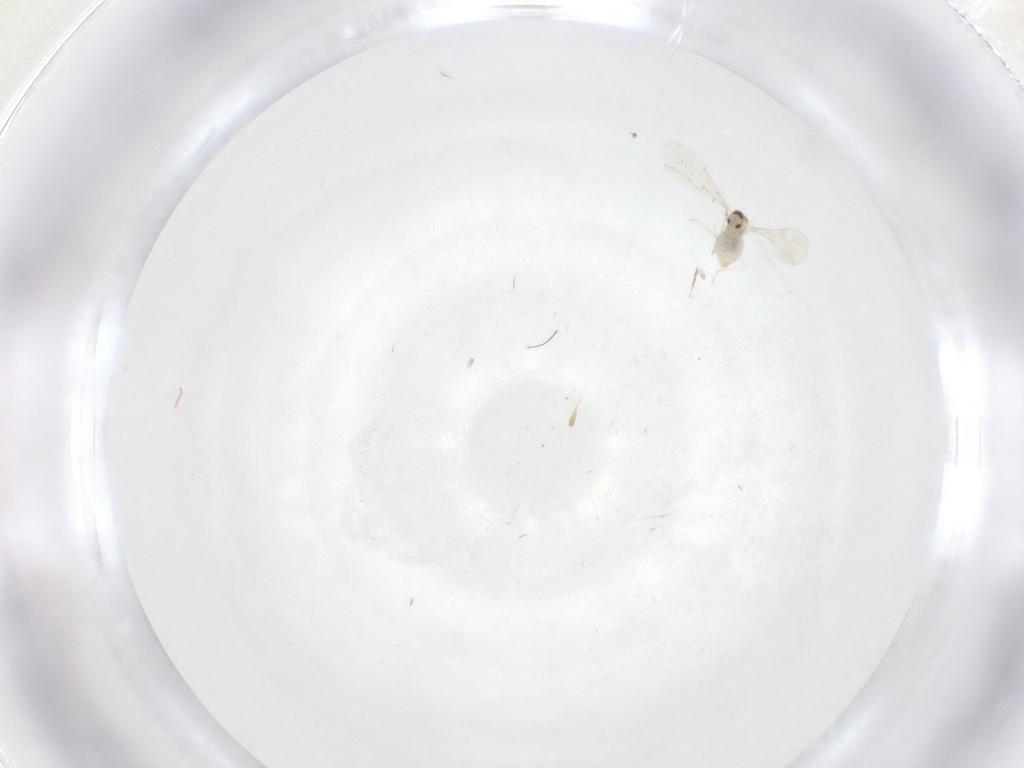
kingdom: Animalia
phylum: Arthropoda
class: Insecta
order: Diptera
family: Cecidomyiidae
